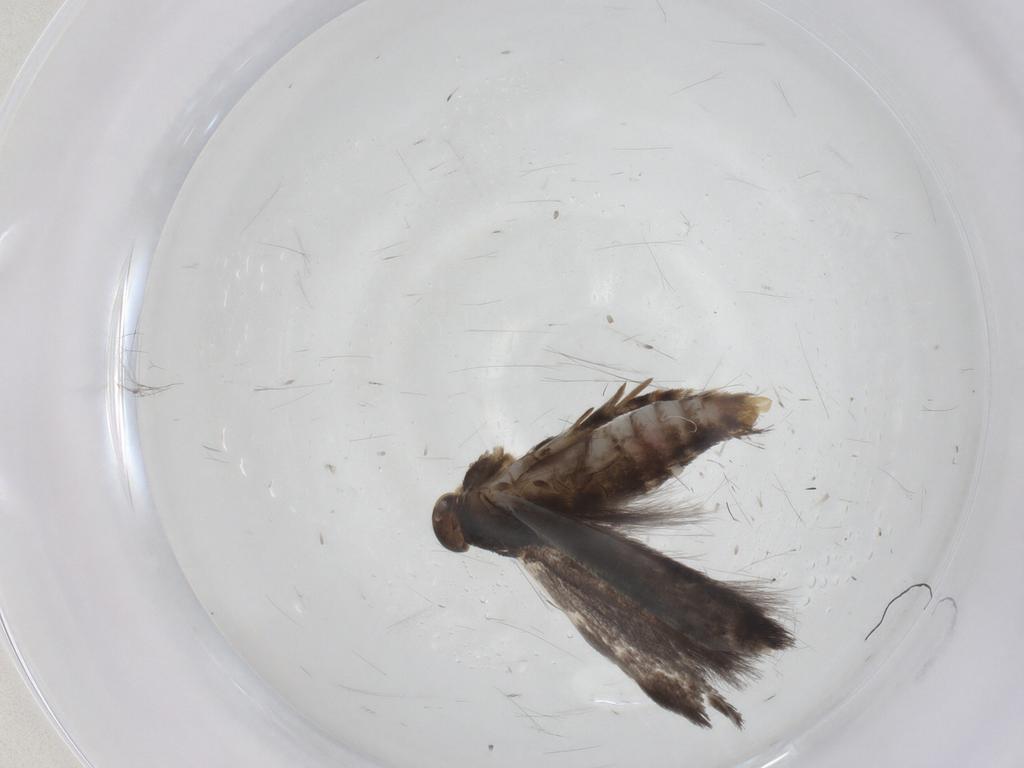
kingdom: Animalia
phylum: Arthropoda
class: Insecta
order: Lepidoptera
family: Elachistidae
